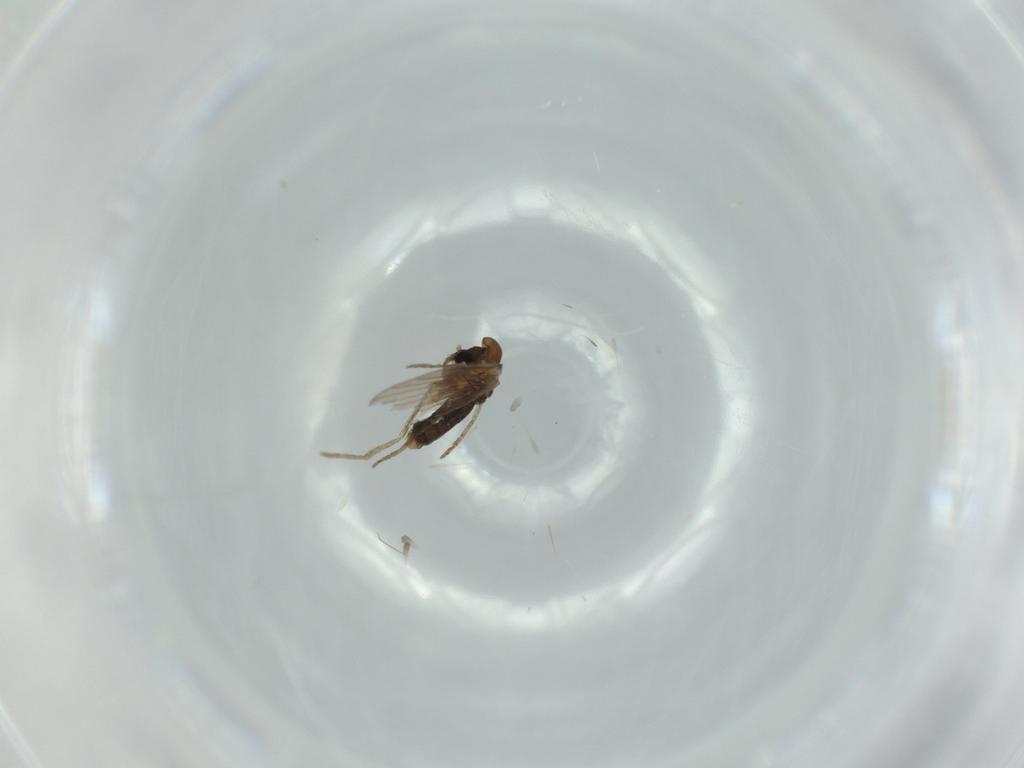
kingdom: Animalia
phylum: Arthropoda
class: Insecta
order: Diptera
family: Psychodidae
